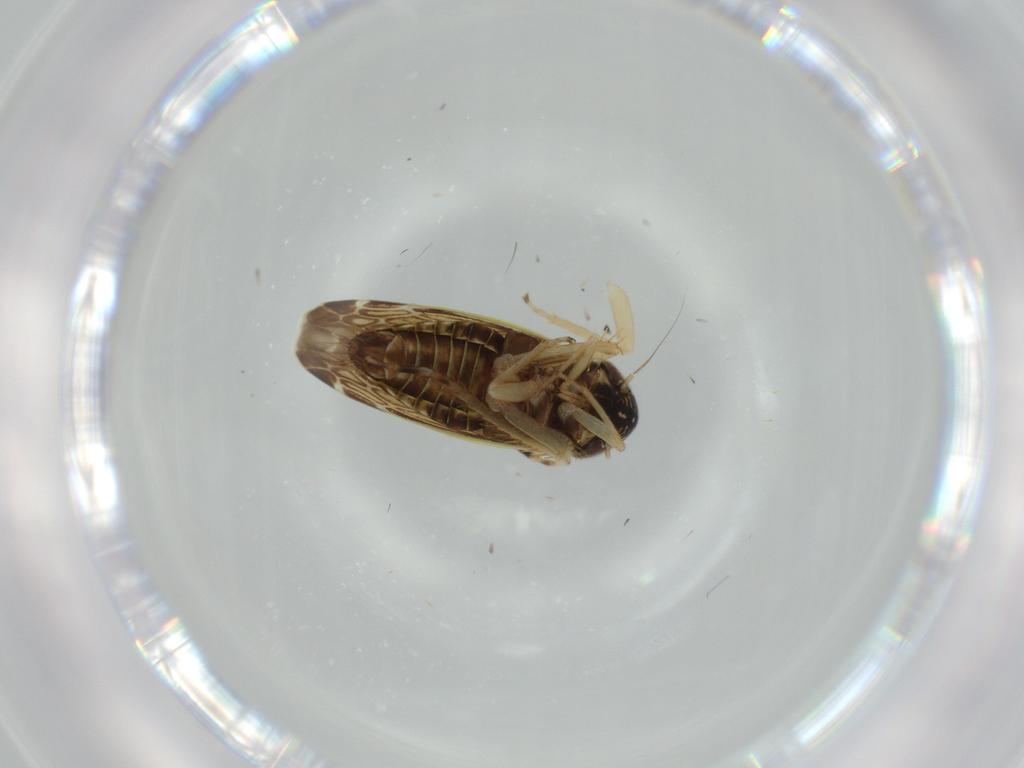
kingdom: Animalia
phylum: Arthropoda
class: Insecta
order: Hemiptera
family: Cicadellidae
